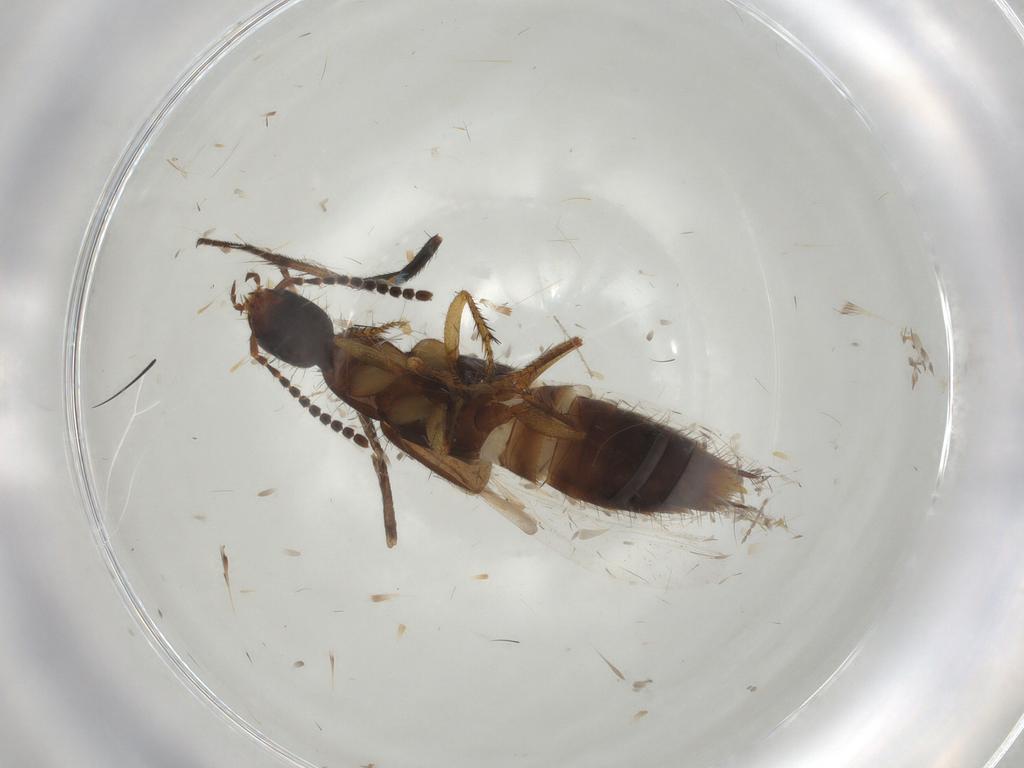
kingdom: Animalia
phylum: Arthropoda
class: Insecta
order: Coleoptera
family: Staphylinidae
